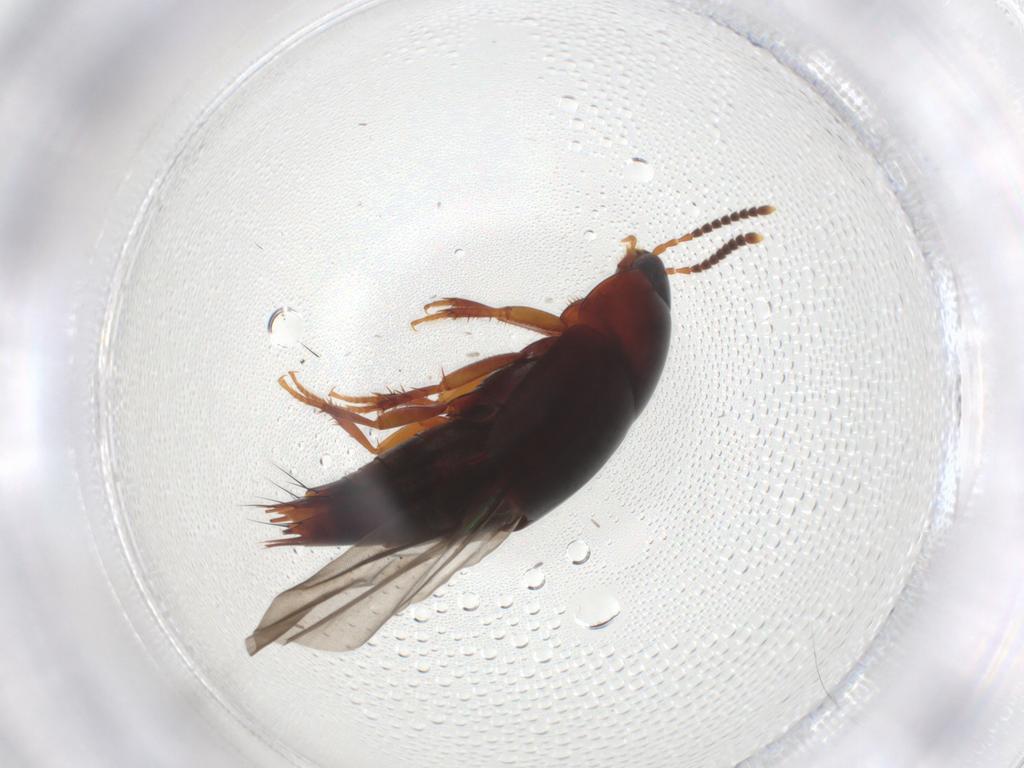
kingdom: Animalia
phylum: Arthropoda
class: Insecta
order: Coleoptera
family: Staphylinidae
